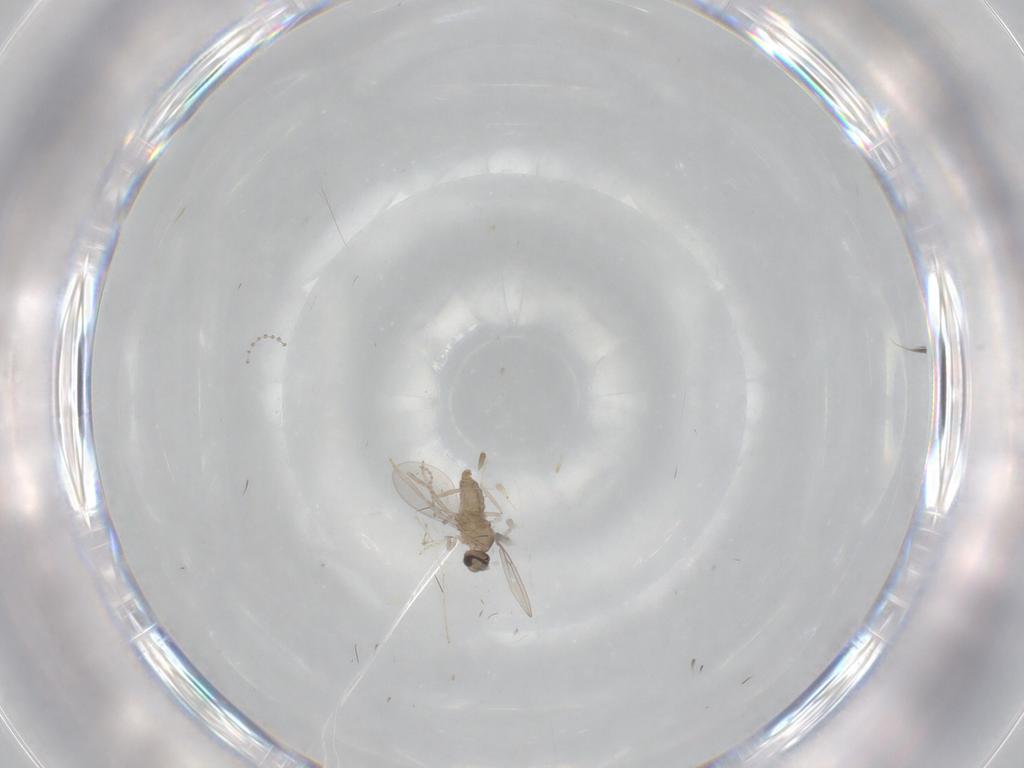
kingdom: Animalia
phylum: Arthropoda
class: Insecta
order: Diptera
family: Cecidomyiidae
